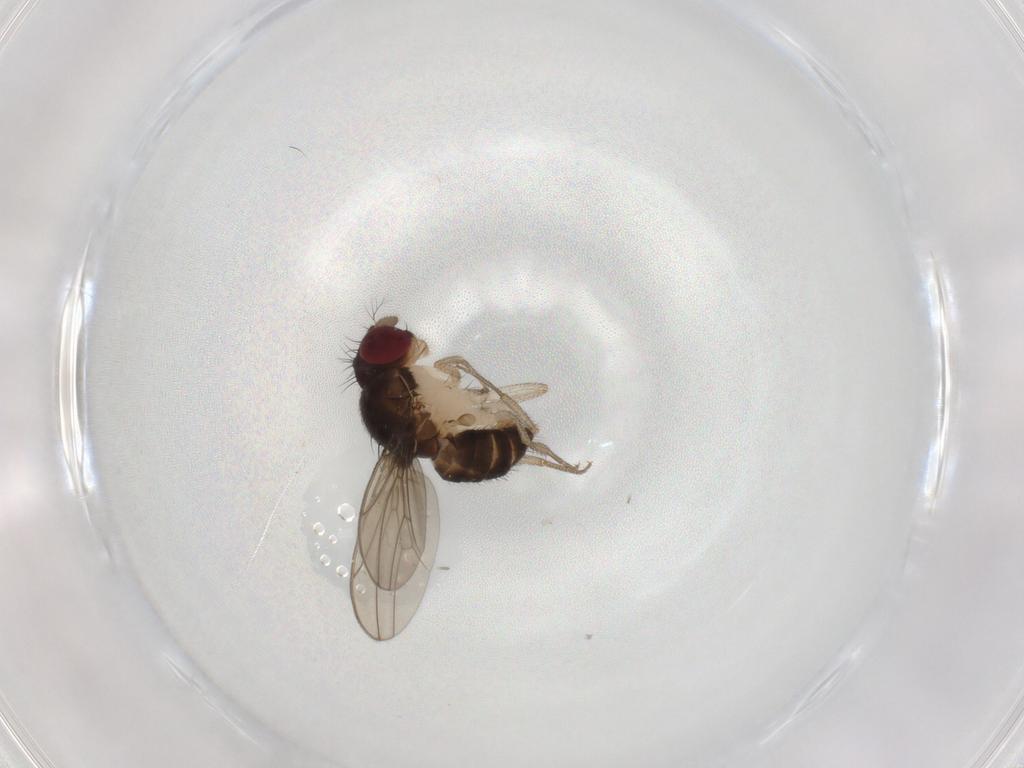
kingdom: Animalia
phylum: Arthropoda
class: Insecta
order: Diptera
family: Drosophilidae
